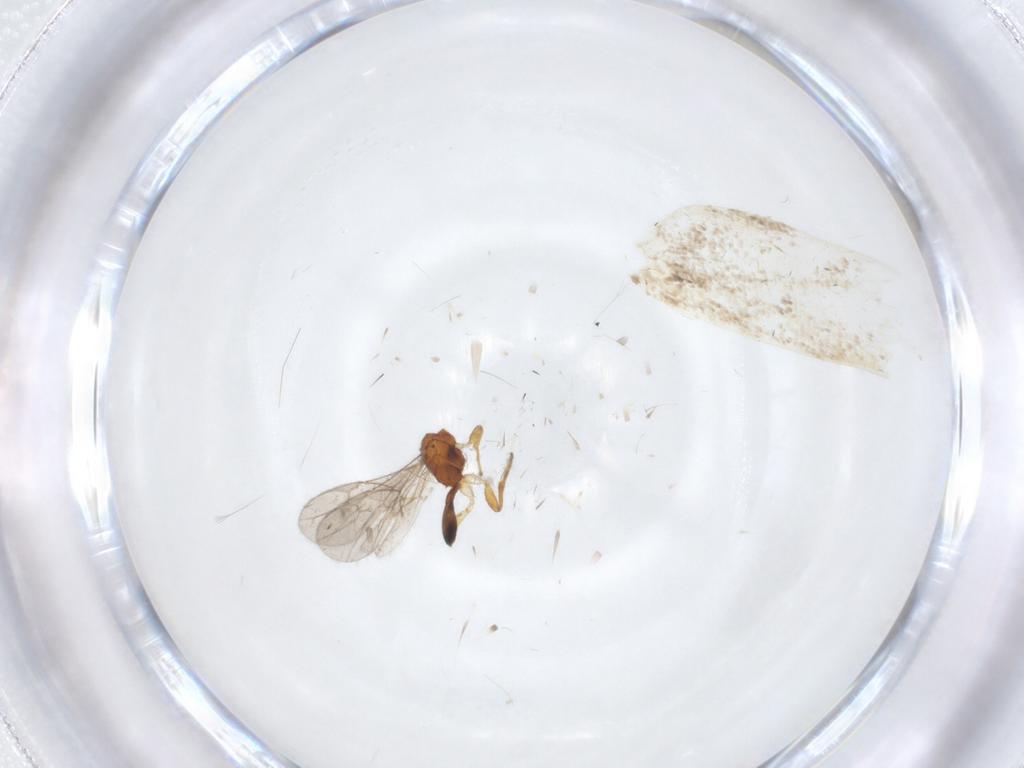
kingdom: Animalia
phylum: Arthropoda
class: Insecta
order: Hymenoptera
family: Braconidae
